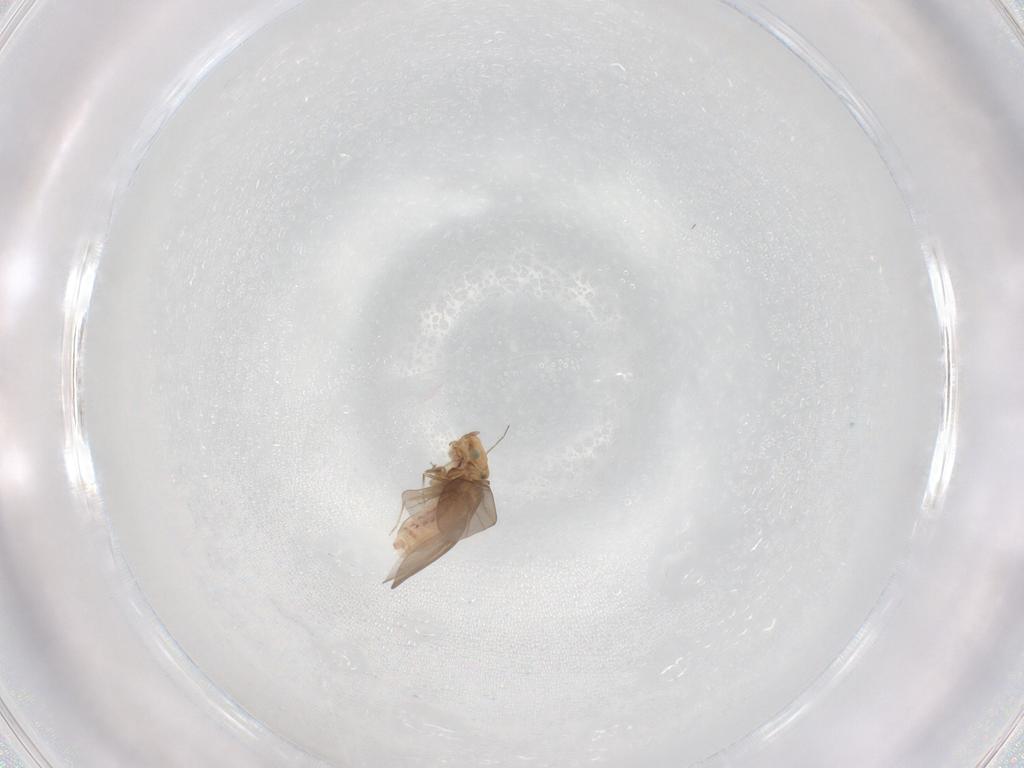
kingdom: Animalia
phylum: Arthropoda
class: Insecta
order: Psocodea
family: Lepidopsocidae
